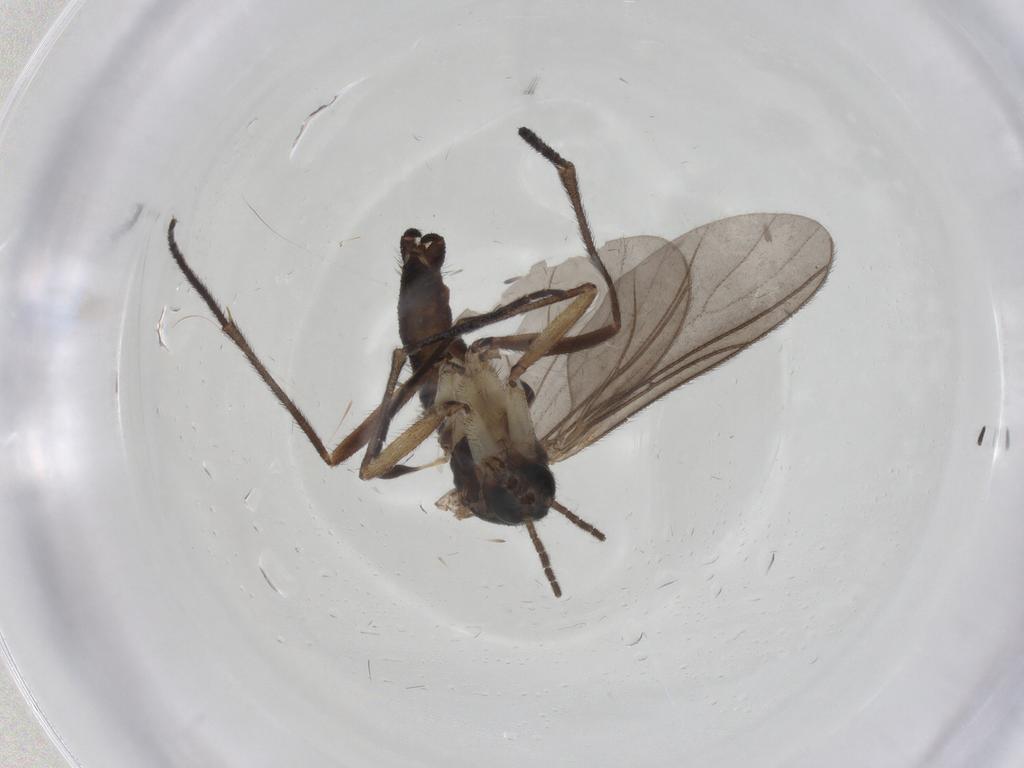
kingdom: Animalia
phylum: Arthropoda
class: Insecta
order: Diptera
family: Sciaridae
